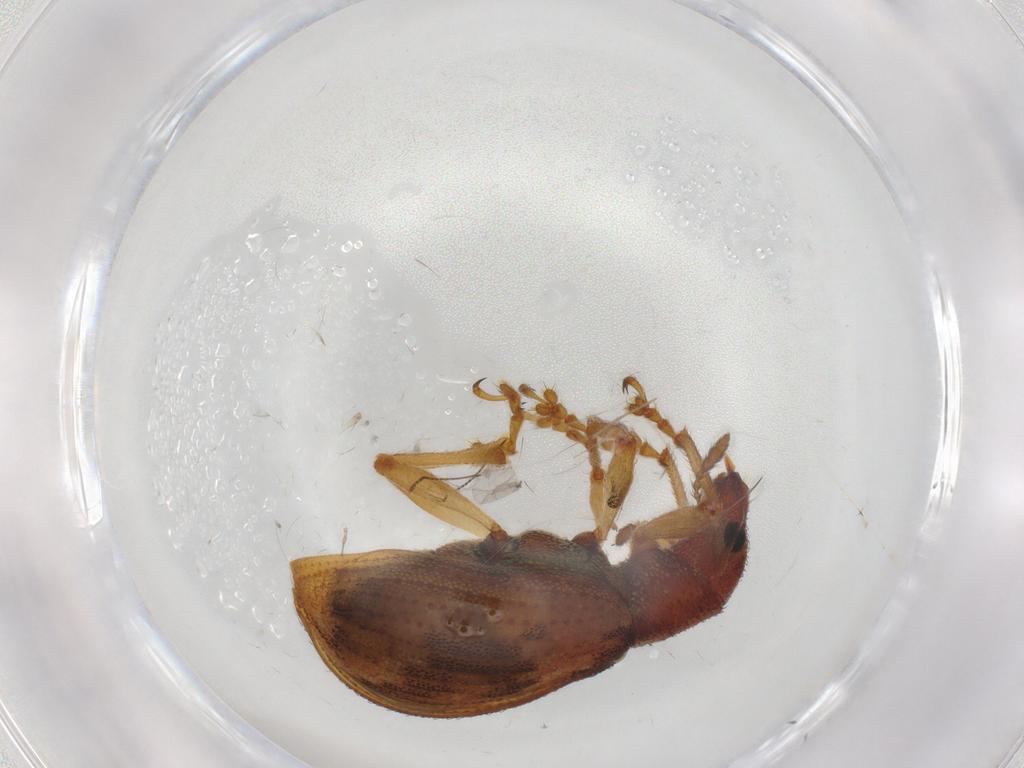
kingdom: Animalia
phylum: Arthropoda
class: Insecta
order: Coleoptera
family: Curculionidae
